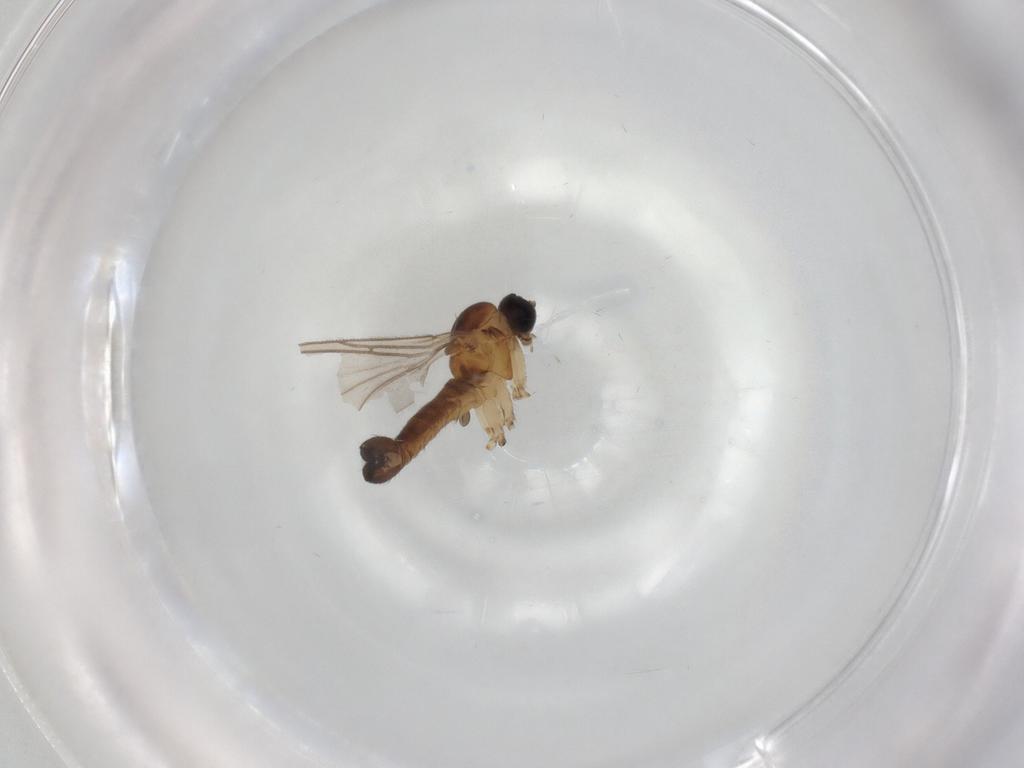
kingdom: Animalia
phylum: Arthropoda
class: Insecta
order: Diptera
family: Sciaridae
